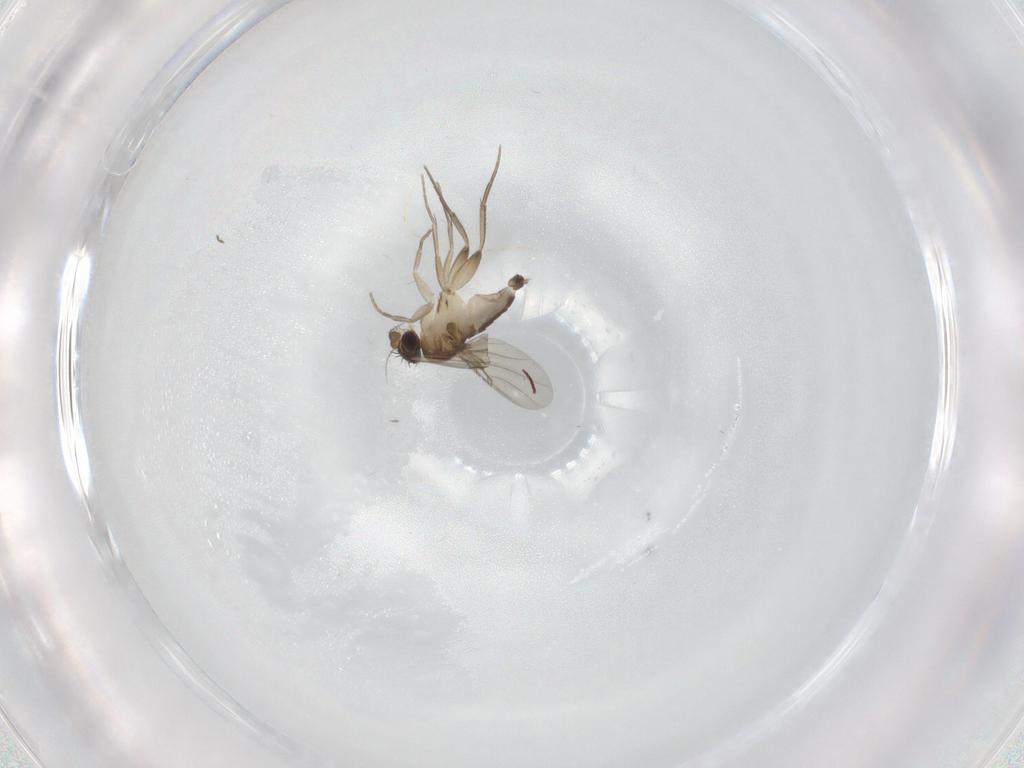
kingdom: Animalia
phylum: Arthropoda
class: Insecta
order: Diptera
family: Phoridae
